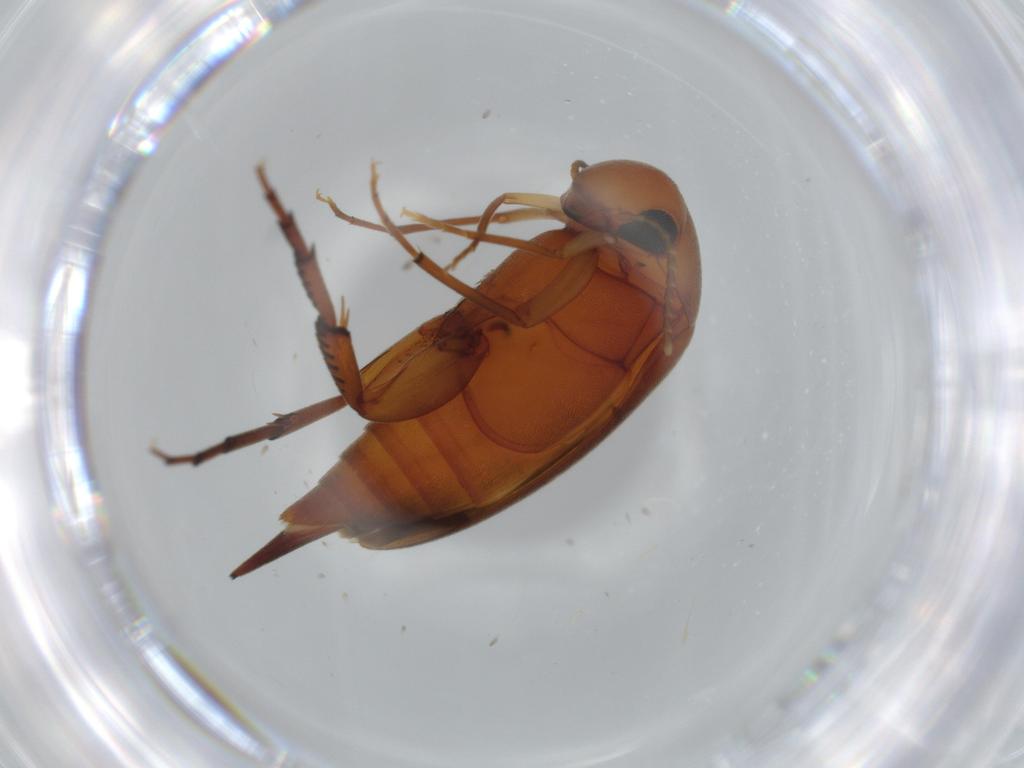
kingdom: Animalia
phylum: Arthropoda
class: Insecta
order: Coleoptera
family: Mordellidae
